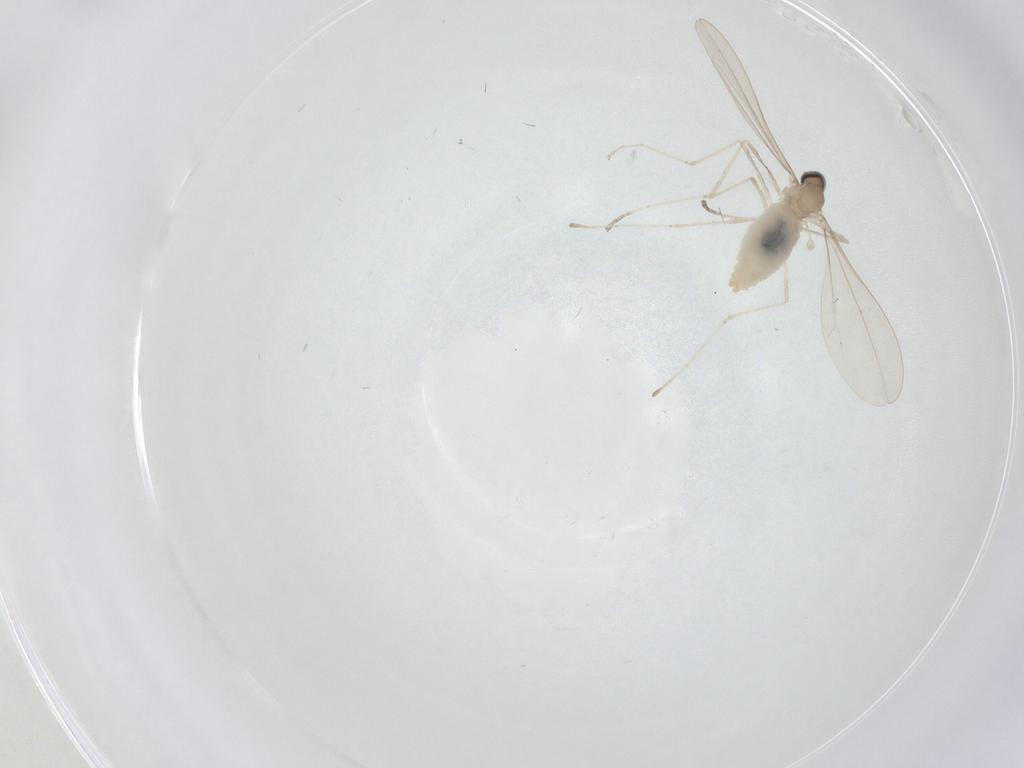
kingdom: Animalia
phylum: Arthropoda
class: Insecta
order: Diptera
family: Cecidomyiidae
